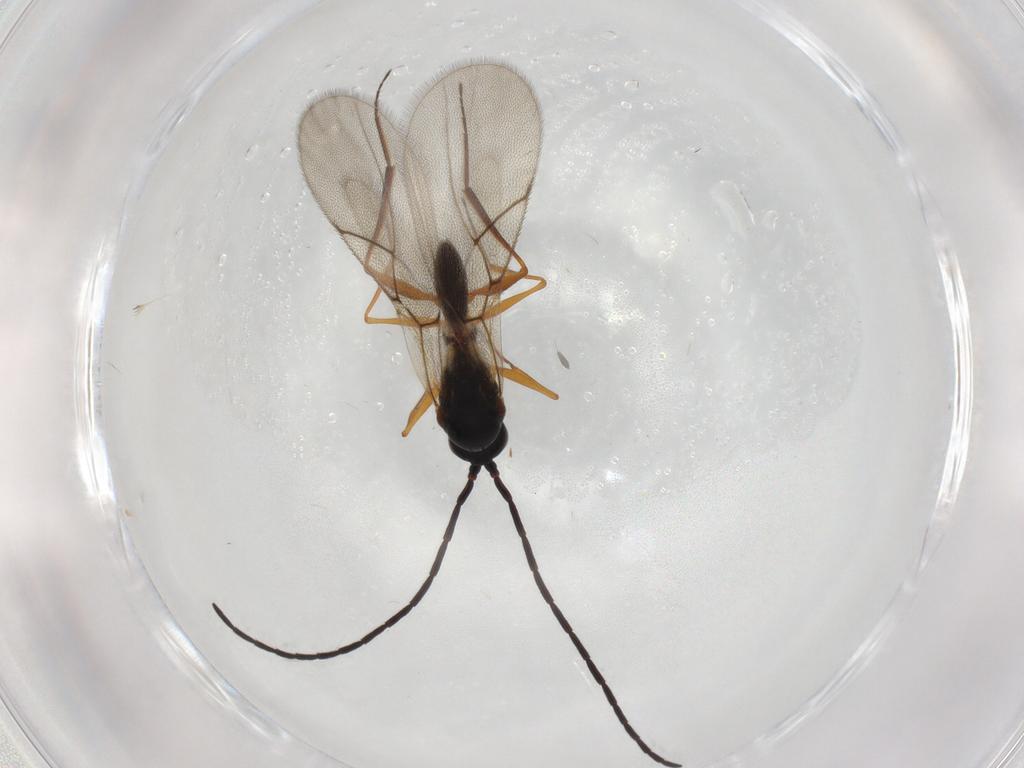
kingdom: Animalia
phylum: Arthropoda
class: Insecta
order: Hymenoptera
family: Figitidae
